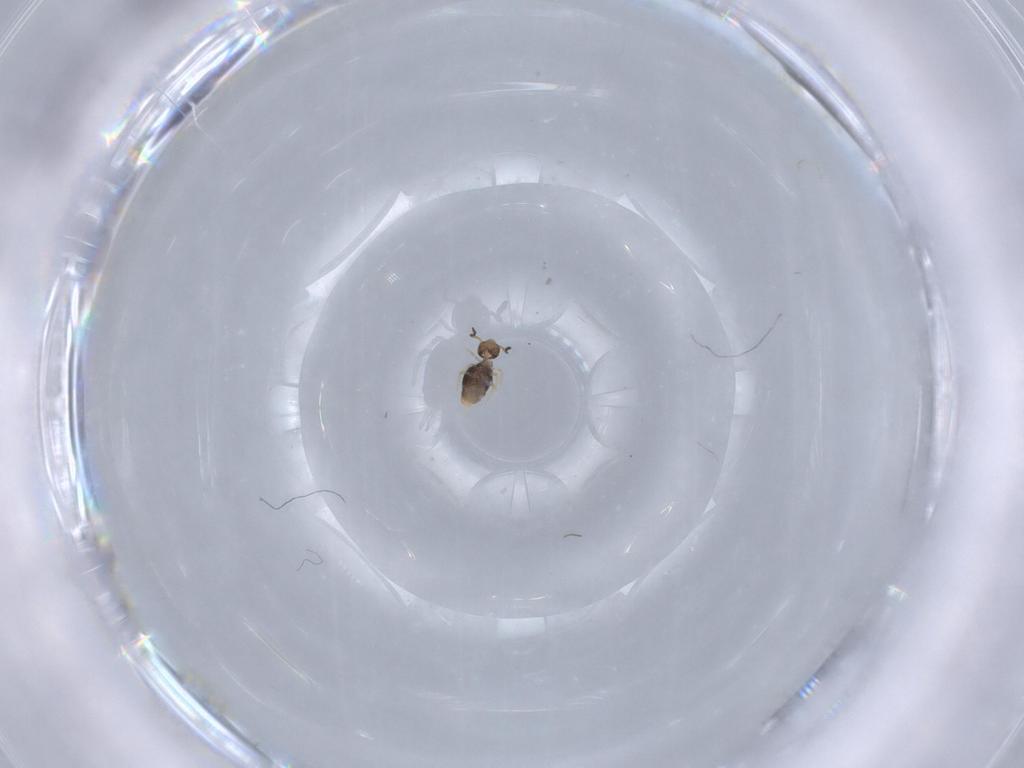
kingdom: Animalia
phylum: Arthropoda
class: Collembola
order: Symphypleona
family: Katiannidae
